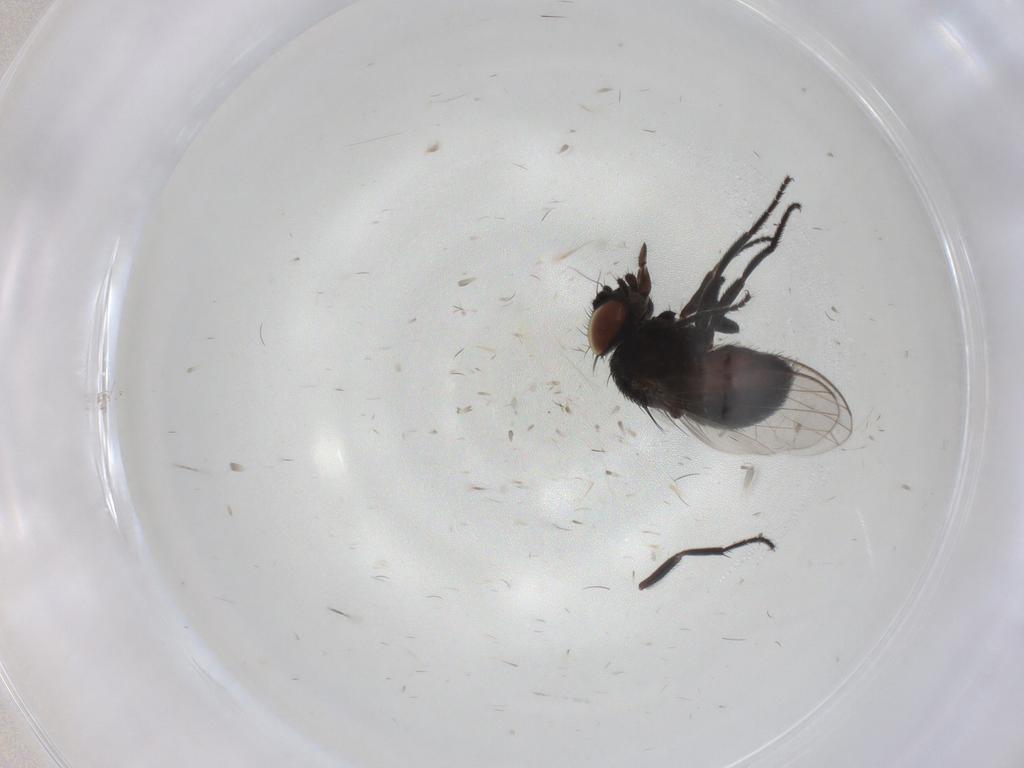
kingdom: Animalia
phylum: Arthropoda
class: Insecta
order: Diptera
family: Milichiidae
